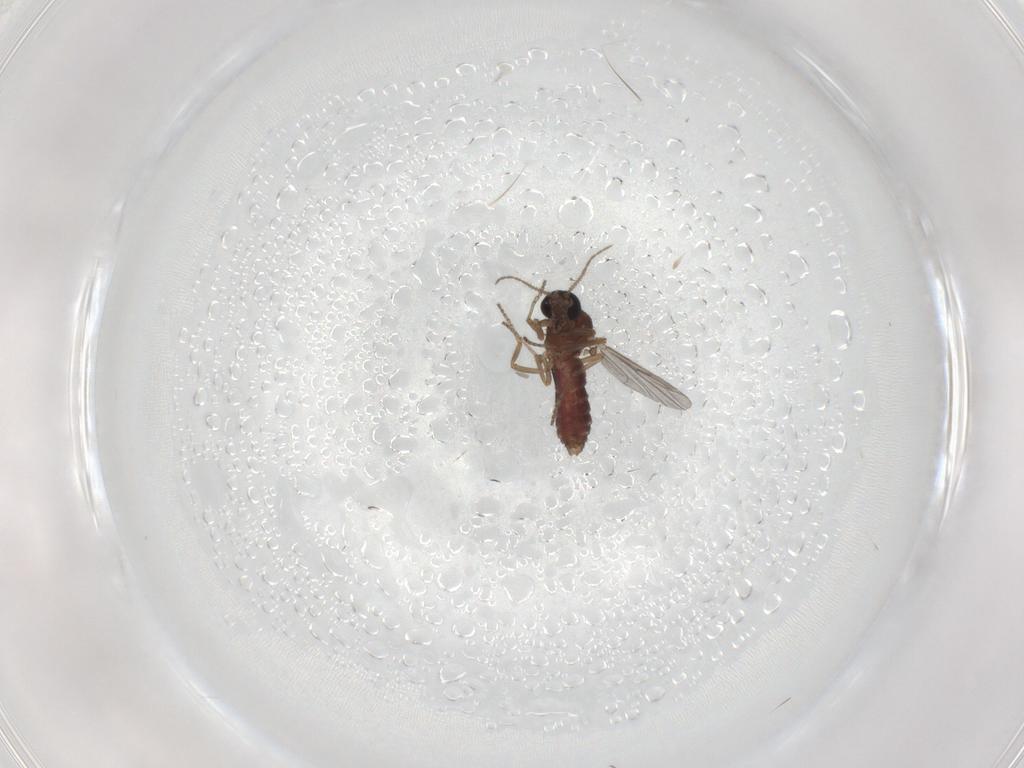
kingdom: Animalia
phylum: Arthropoda
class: Insecta
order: Diptera
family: Ceratopogonidae
